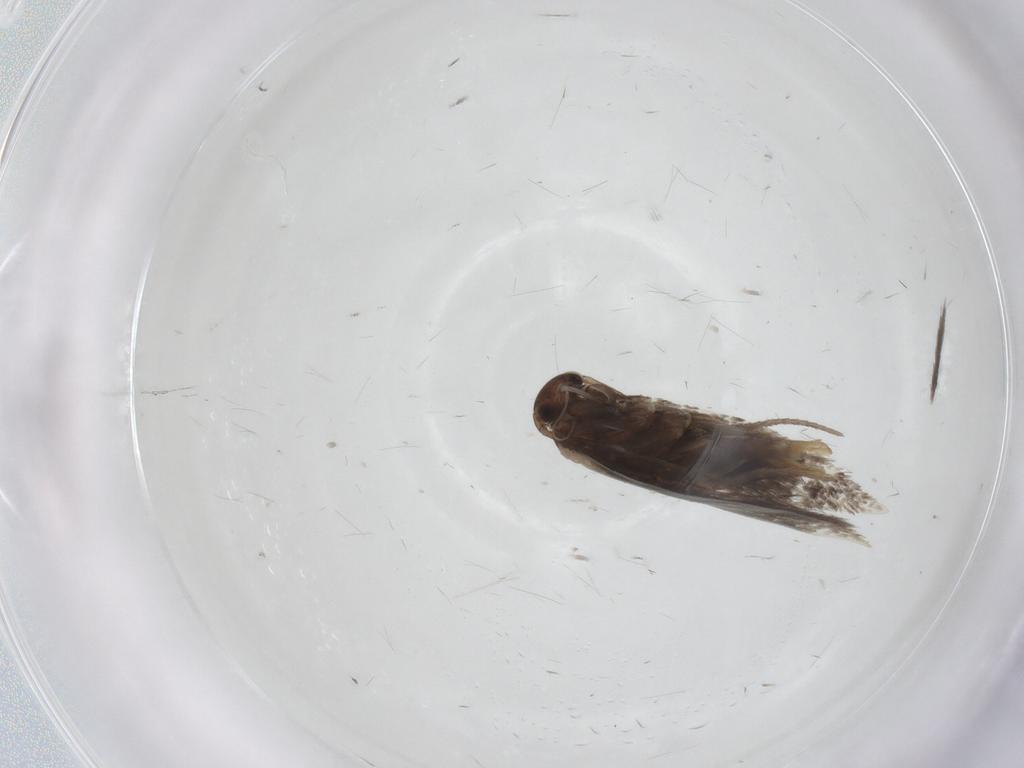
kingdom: Animalia
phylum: Arthropoda
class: Insecta
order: Lepidoptera
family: Elachistidae
